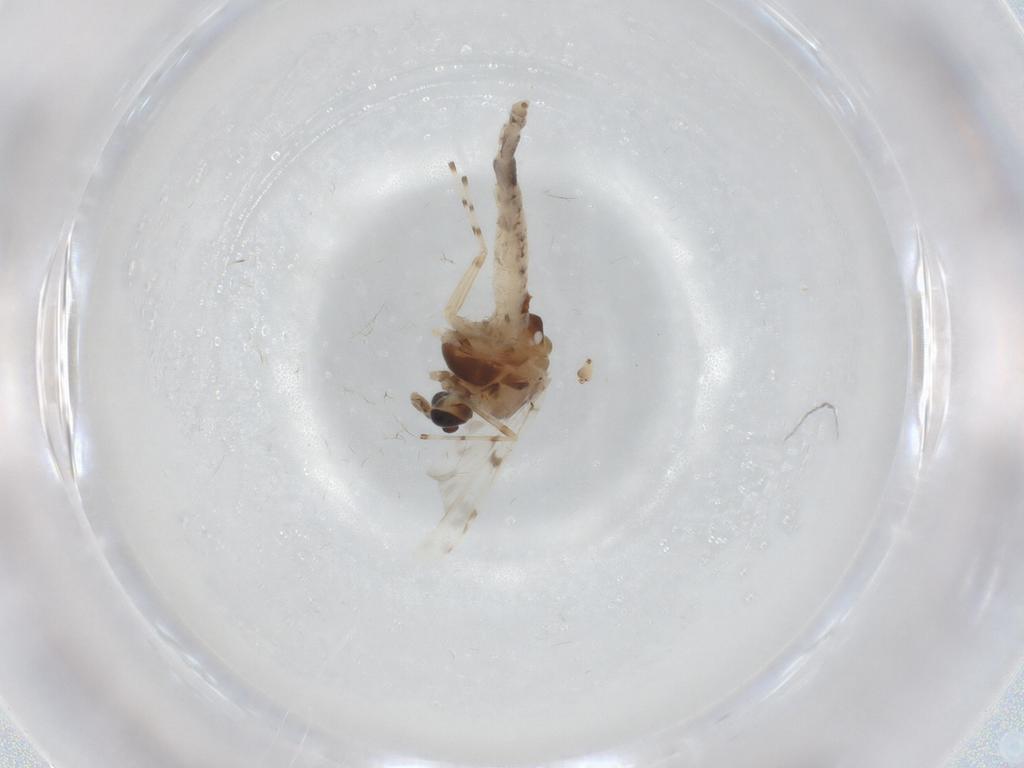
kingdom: Animalia
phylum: Arthropoda
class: Insecta
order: Diptera
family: Chironomidae
